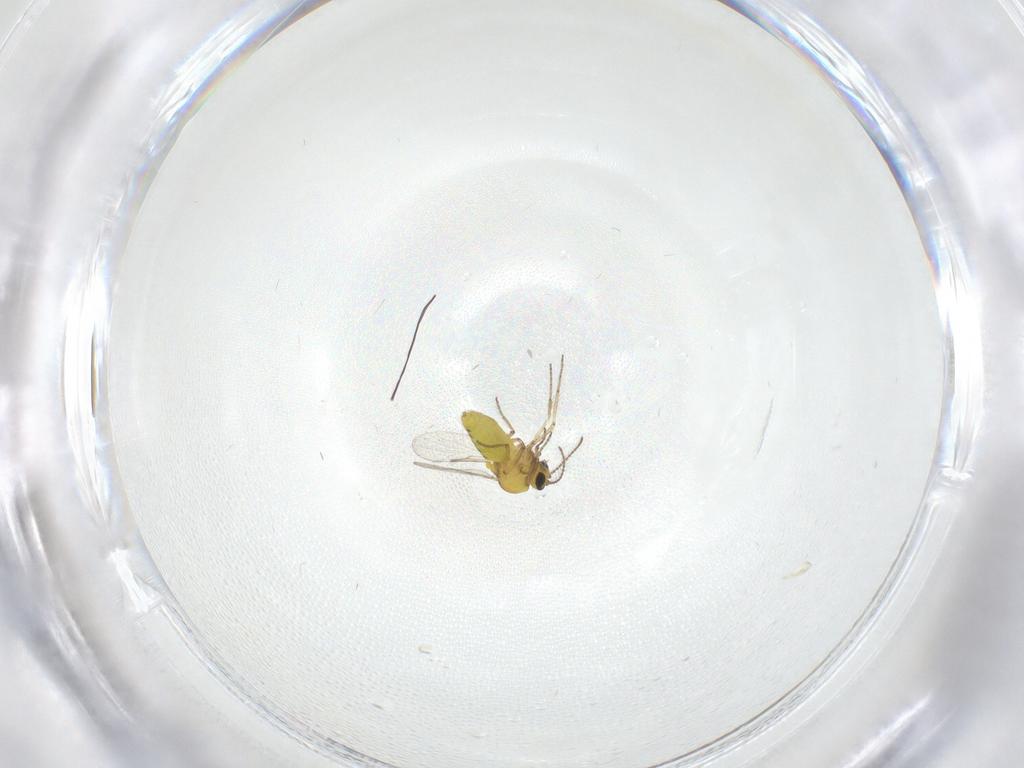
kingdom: Animalia
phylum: Arthropoda
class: Insecta
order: Diptera
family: Ceratopogonidae
